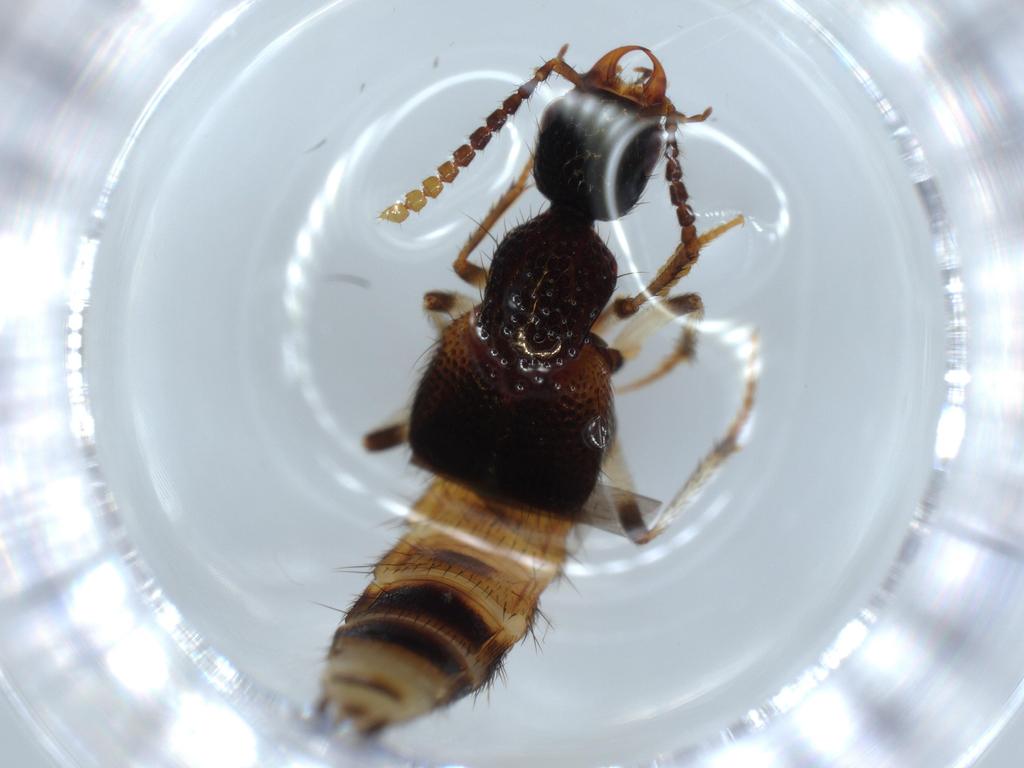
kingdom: Animalia
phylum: Arthropoda
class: Insecta
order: Coleoptera
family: Staphylinidae
